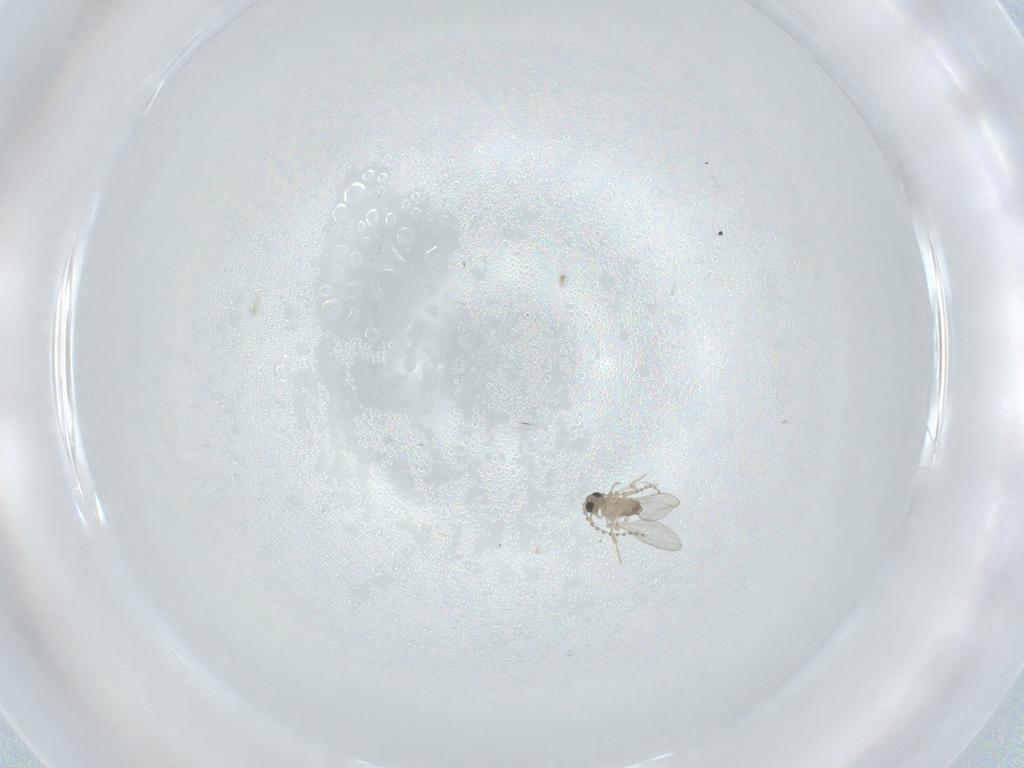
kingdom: Animalia
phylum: Arthropoda
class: Insecta
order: Diptera
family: Cecidomyiidae
